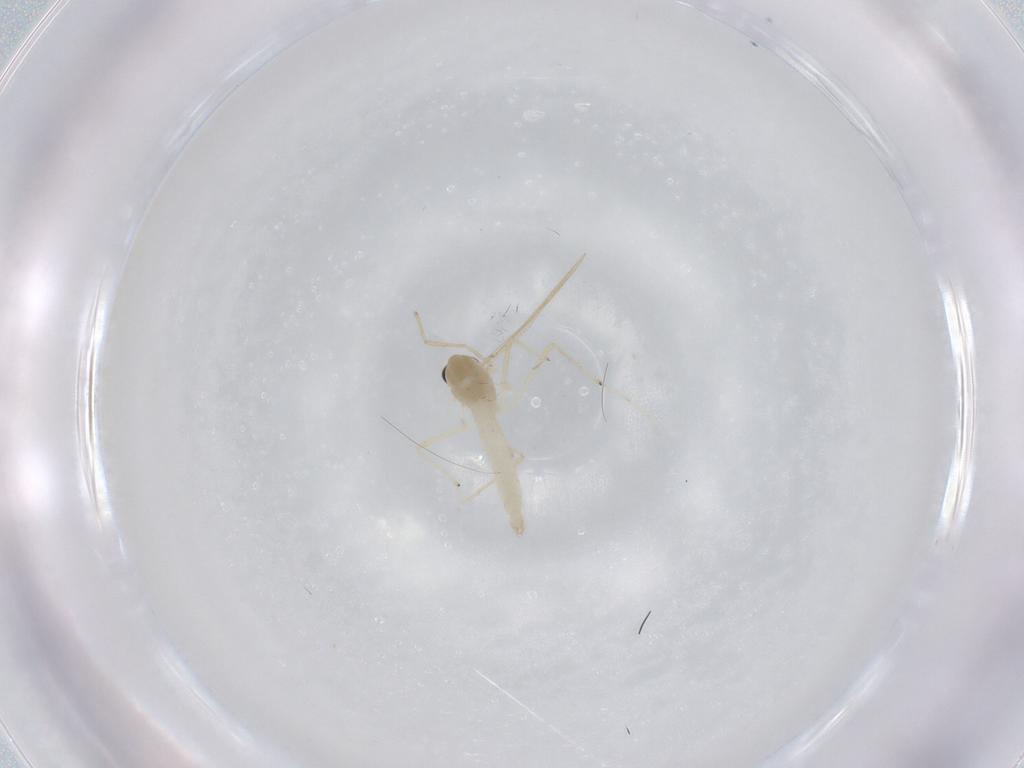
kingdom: Animalia
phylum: Arthropoda
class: Insecta
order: Diptera
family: Chironomidae
